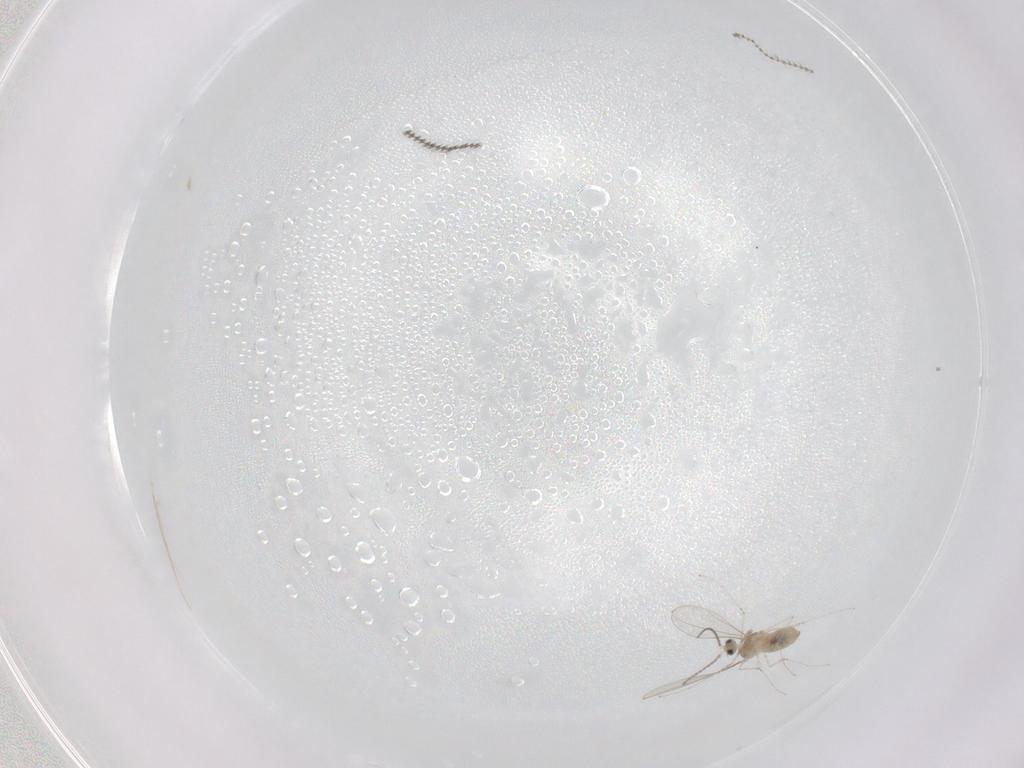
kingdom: Animalia
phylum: Arthropoda
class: Insecta
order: Diptera
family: Cecidomyiidae
